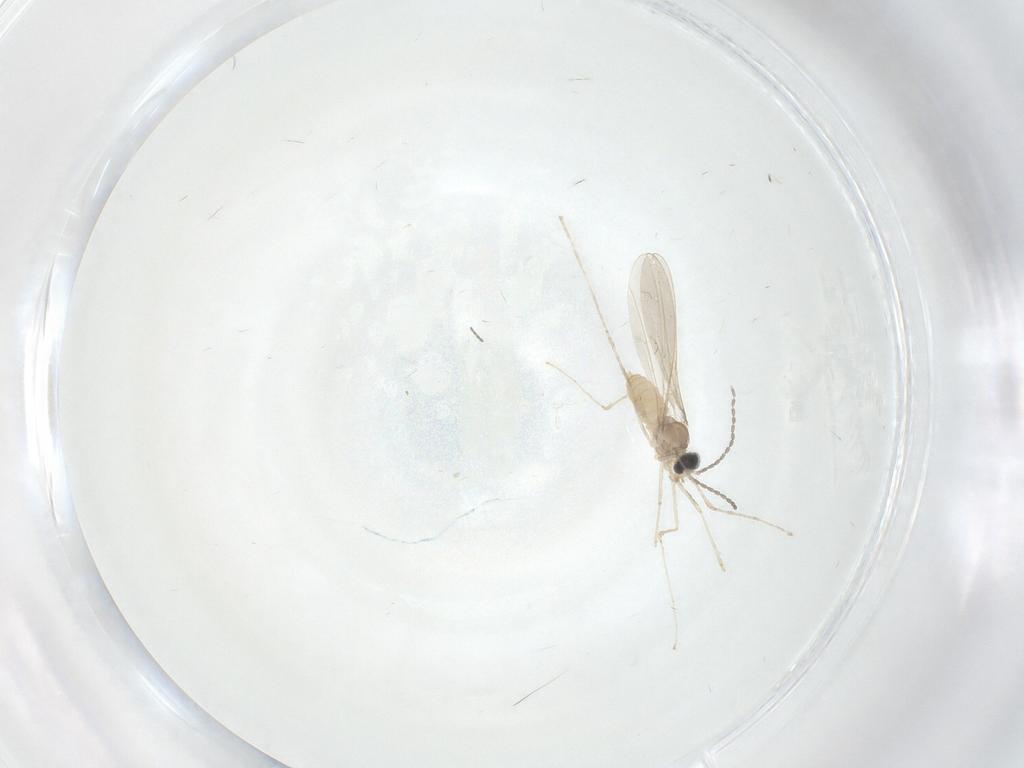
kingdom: Animalia
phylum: Arthropoda
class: Insecta
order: Diptera
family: Cecidomyiidae
